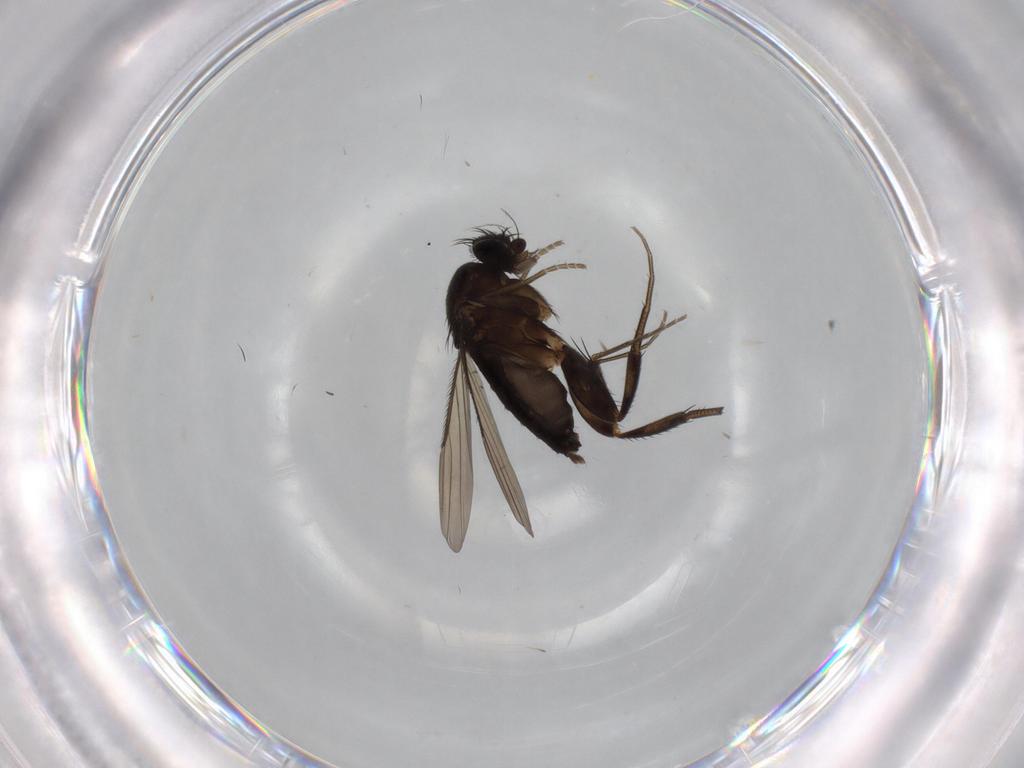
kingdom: Animalia
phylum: Arthropoda
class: Insecta
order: Diptera
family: Phoridae
